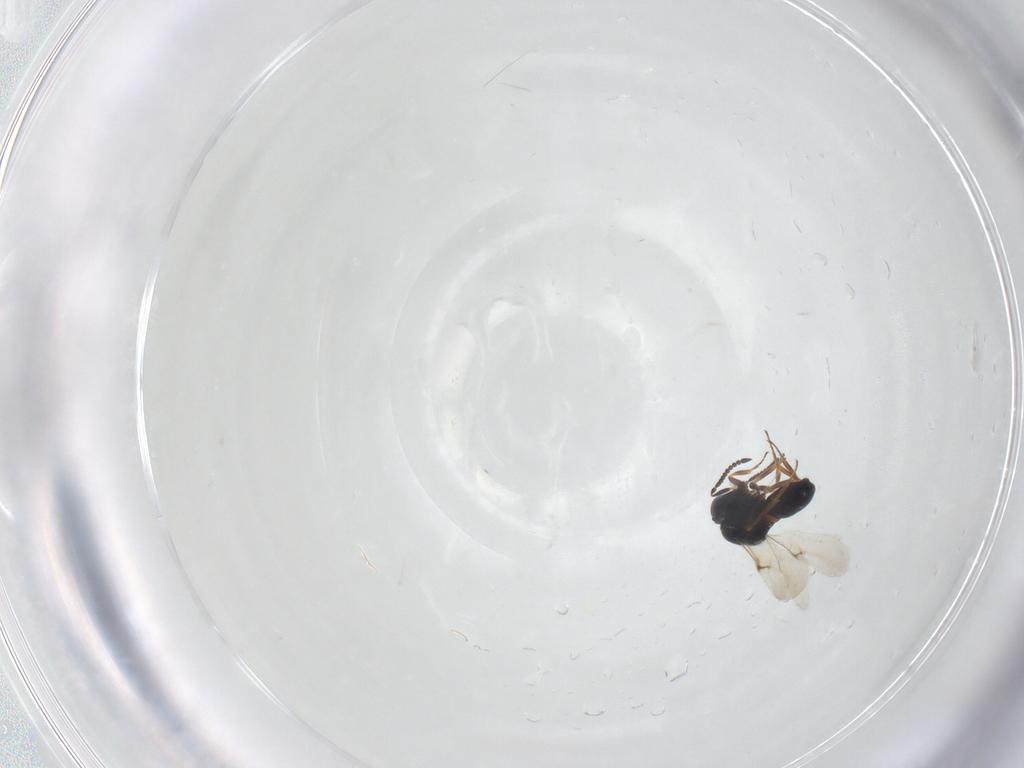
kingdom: Animalia
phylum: Arthropoda
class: Arachnida
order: Araneae
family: Pholcidae
